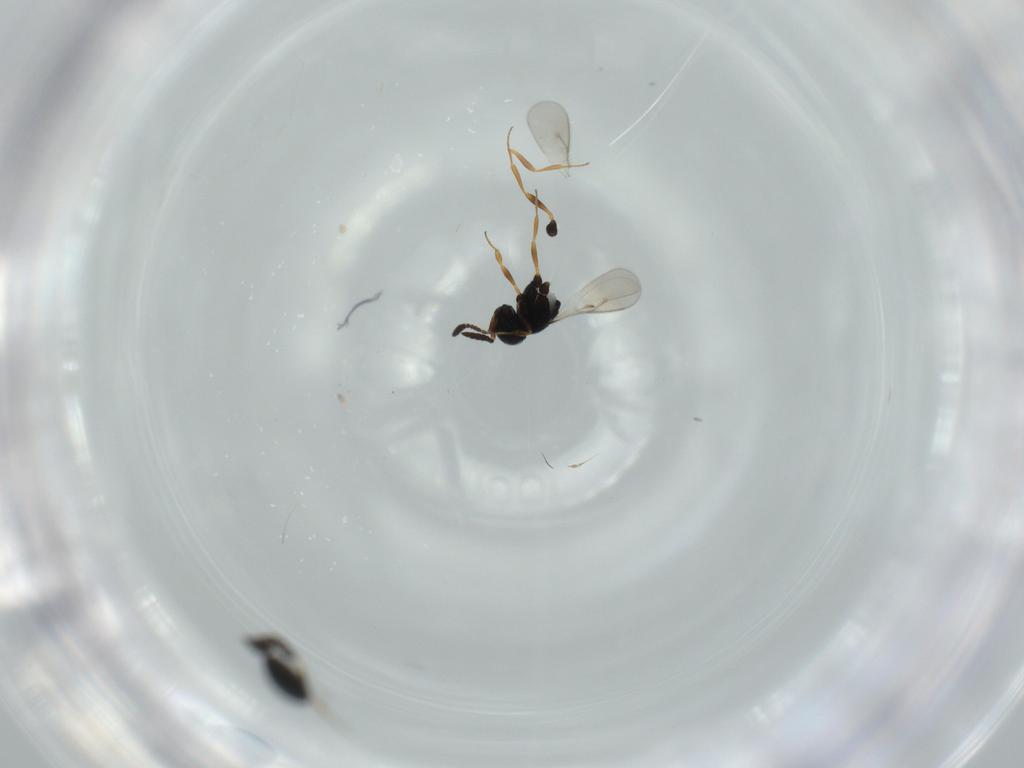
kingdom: Animalia
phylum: Arthropoda
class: Insecta
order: Hymenoptera
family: Scelionidae
